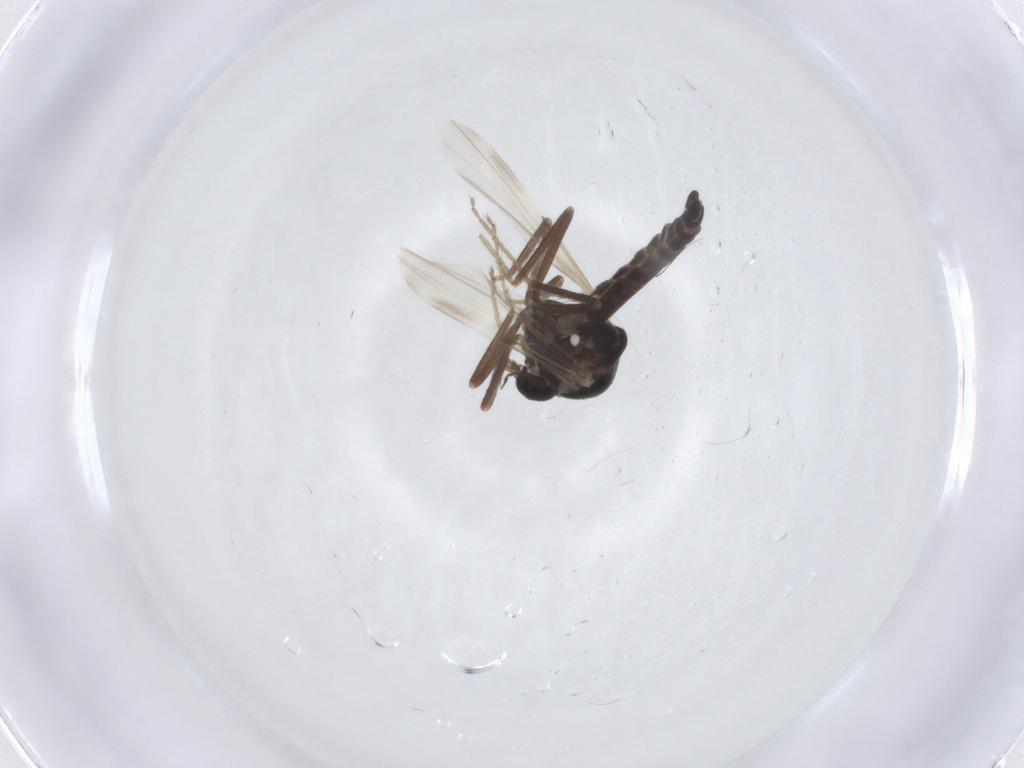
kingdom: Animalia
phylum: Arthropoda
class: Insecta
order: Diptera
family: Ceratopogonidae
